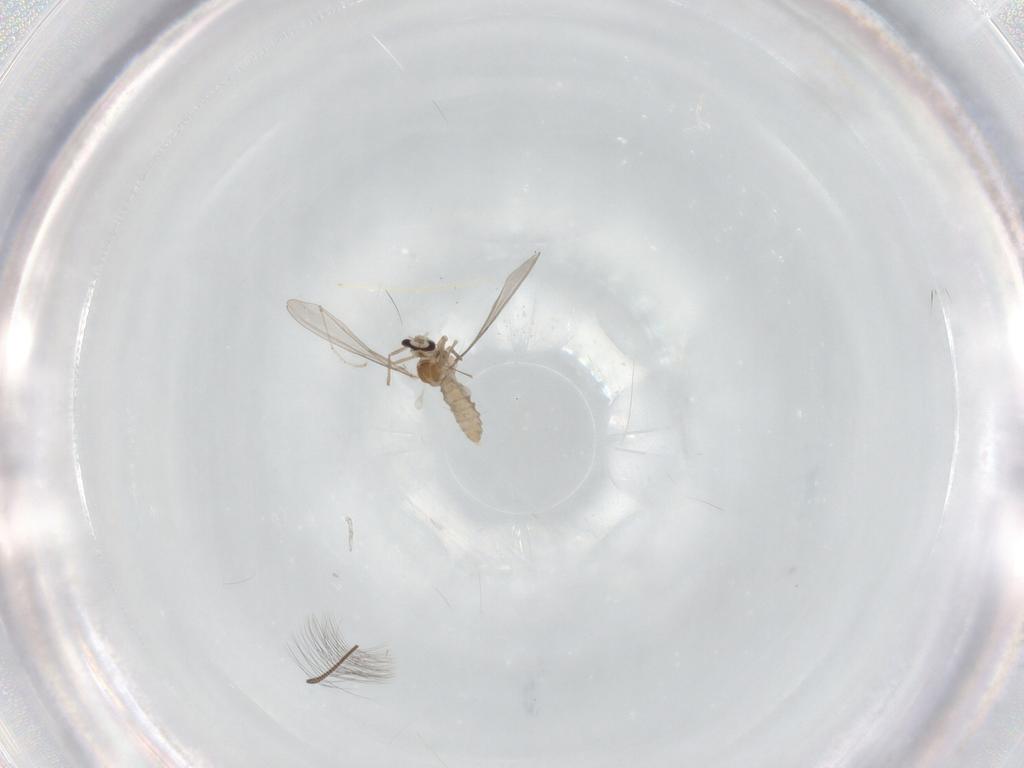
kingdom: Animalia
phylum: Arthropoda
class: Insecta
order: Diptera
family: Cecidomyiidae
